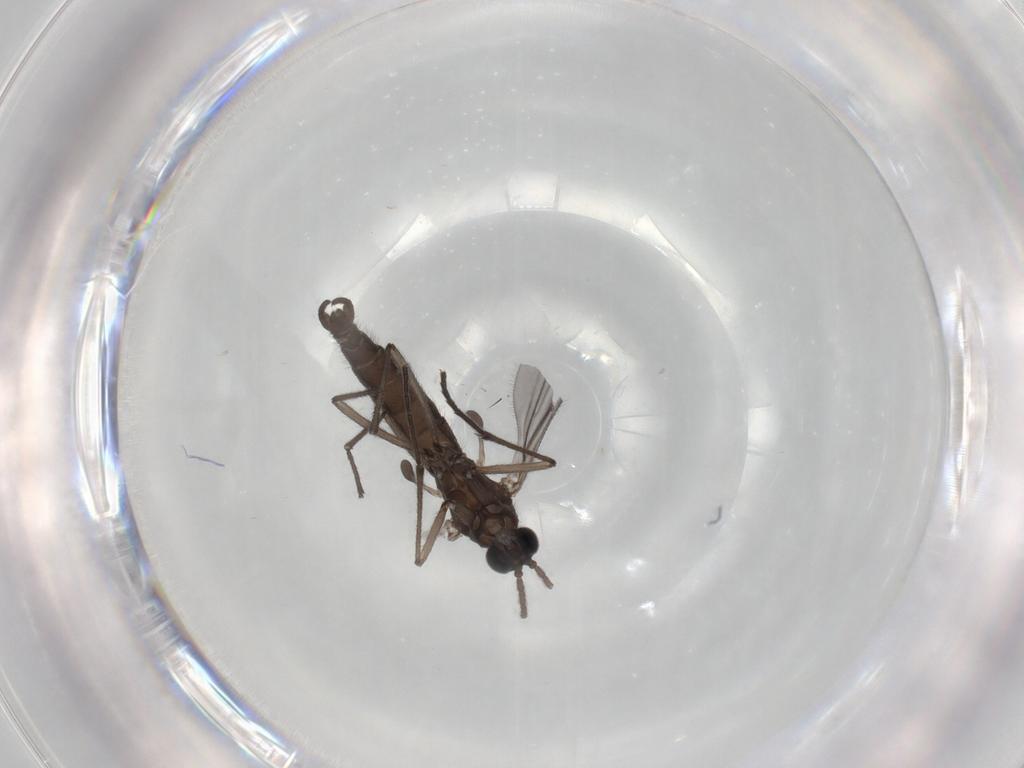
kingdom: Animalia
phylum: Arthropoda
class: Insecta
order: Diptera
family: Sciaridae
